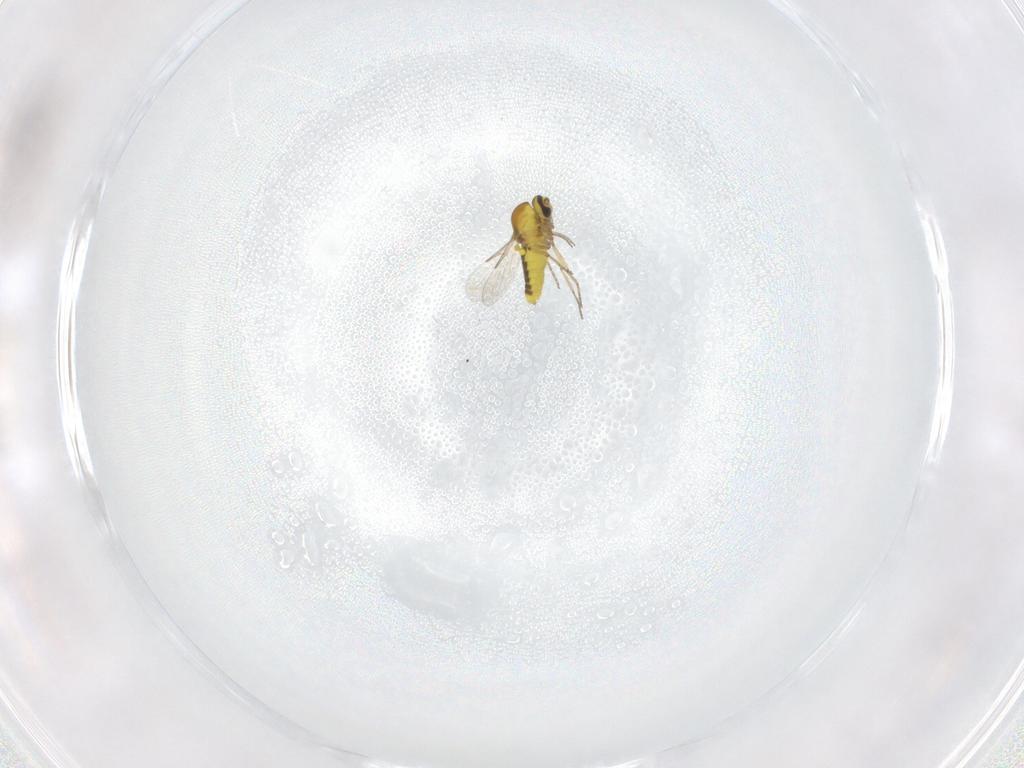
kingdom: Animalia
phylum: Arthropoda
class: Insecta
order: Diptera
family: Ceratopogonidae
